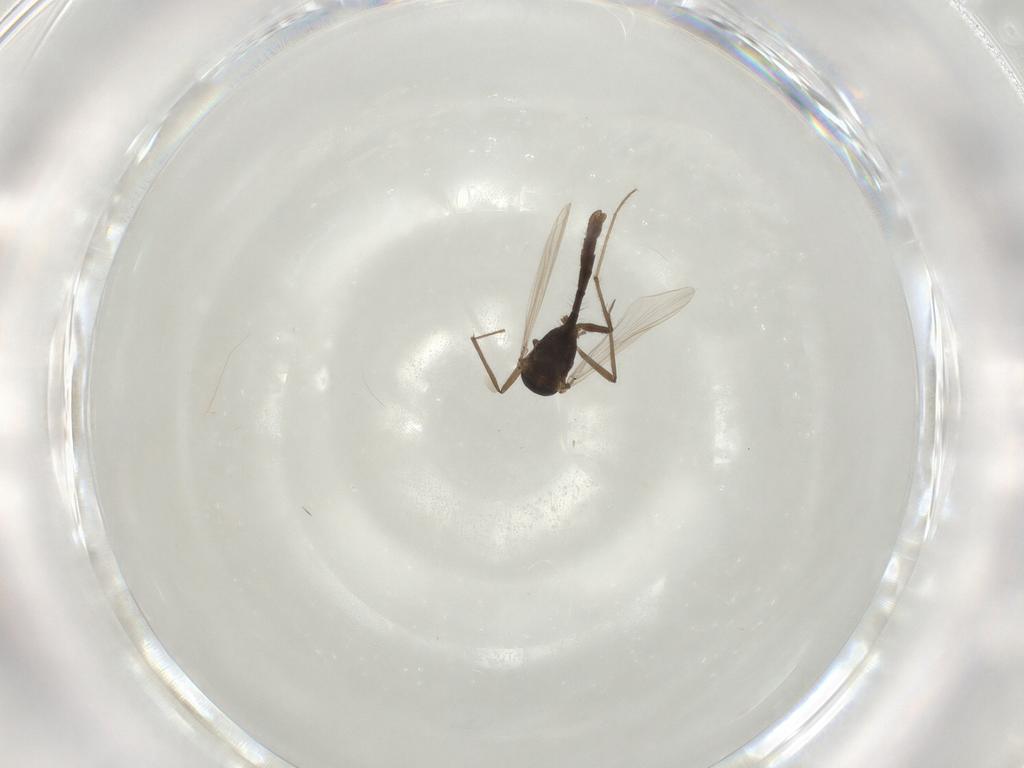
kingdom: Animalia
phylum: Arthropoda
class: Insecta
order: Diptera
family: Chironomidae
